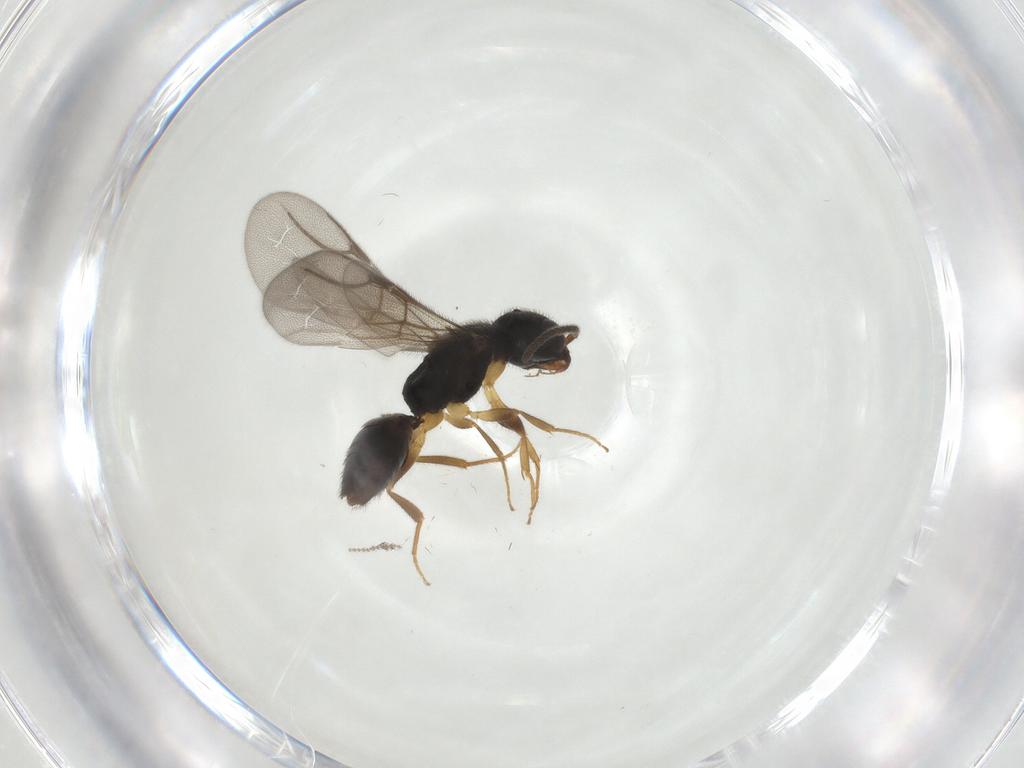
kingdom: Animalia
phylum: Arthropoda
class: Insecta
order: Hymenoptera
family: Bethylidae
